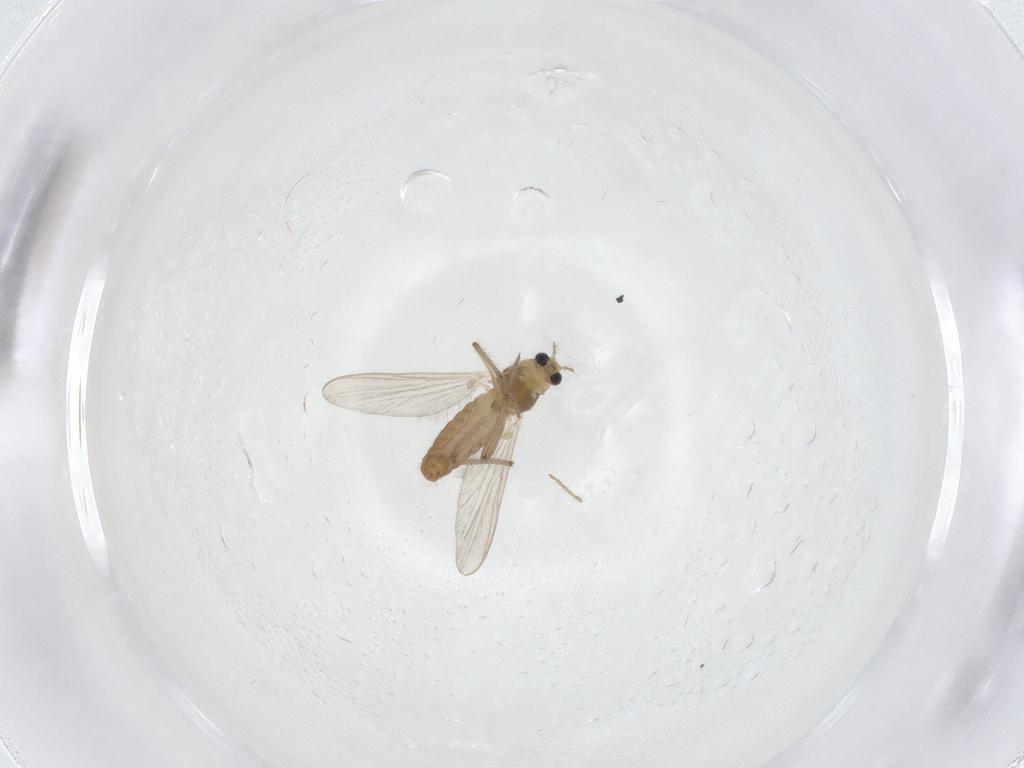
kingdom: Animalia
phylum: Arthropoda
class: Insecta
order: Diptera
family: Chironomidae
